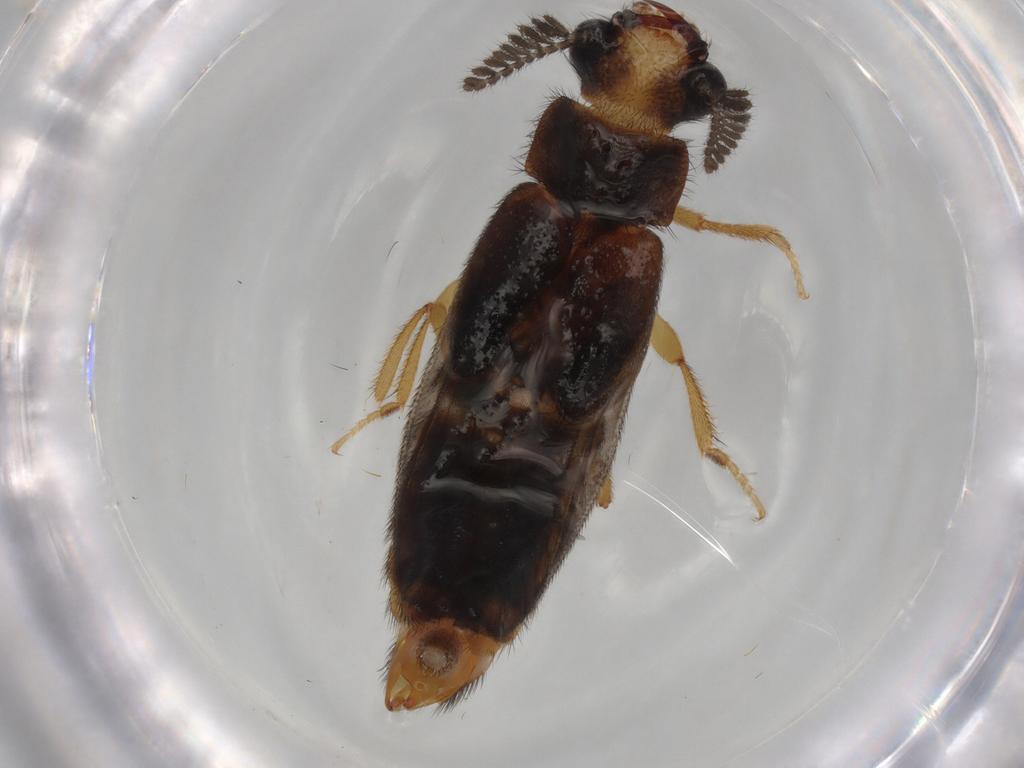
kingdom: Animalia
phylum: Arthropoda
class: Insecta
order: Coleoptera
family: Phengodidae
